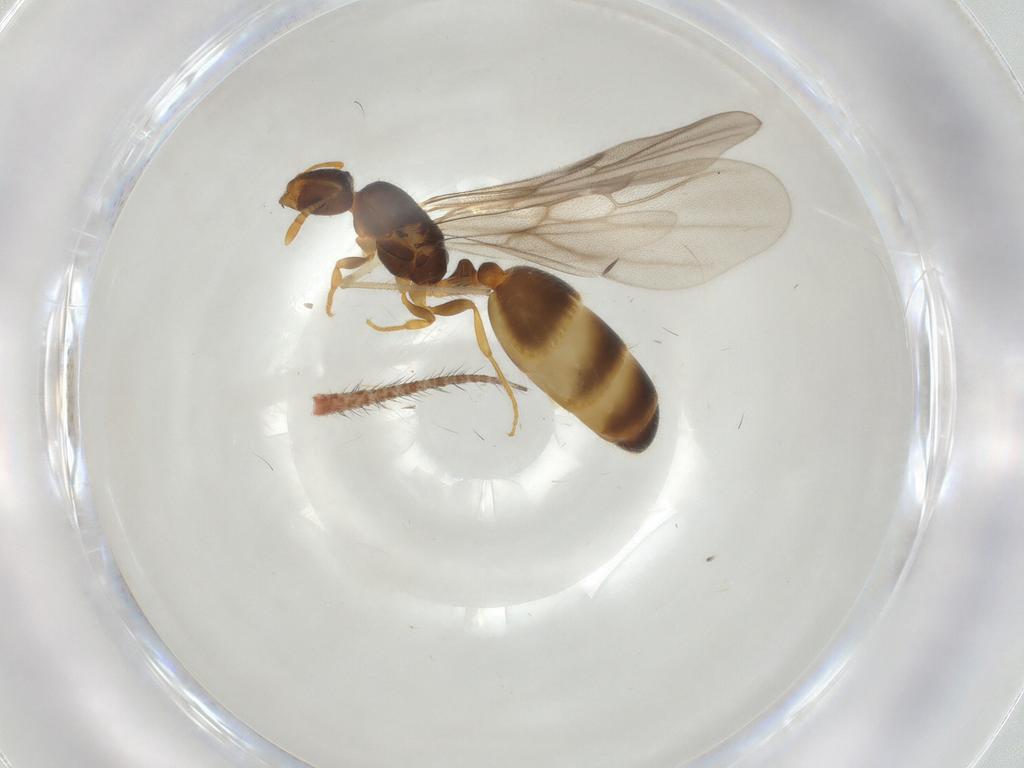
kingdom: Animalia
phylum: Arthropoda
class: Insecta
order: Hymenoptera
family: Formicidae
